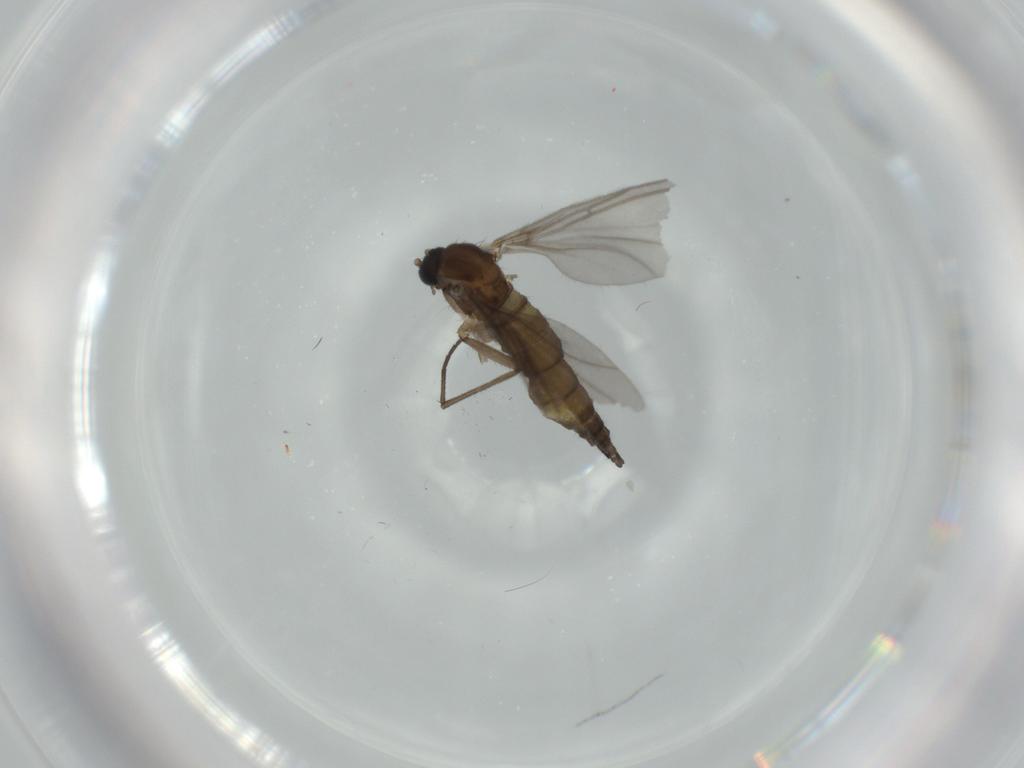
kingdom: Animalia
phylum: Arthropoda
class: Insecta
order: Diptera
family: Sciaridae
